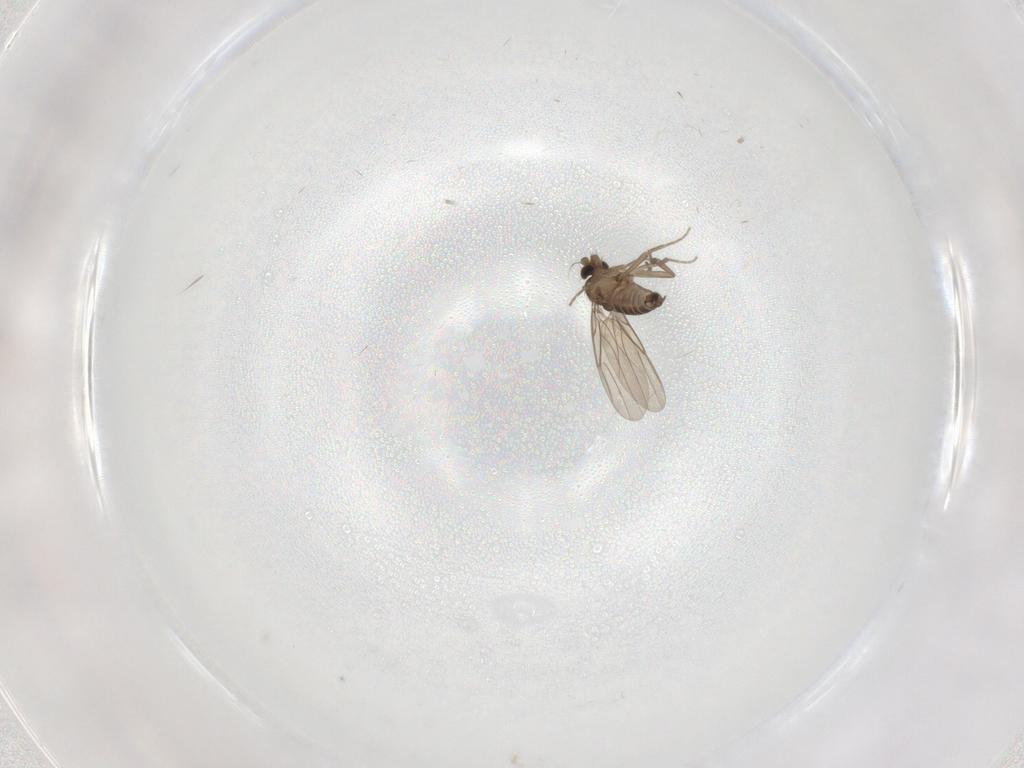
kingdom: Animalia
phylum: Arthropoda
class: Insecta
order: Diptera
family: Phoridae
